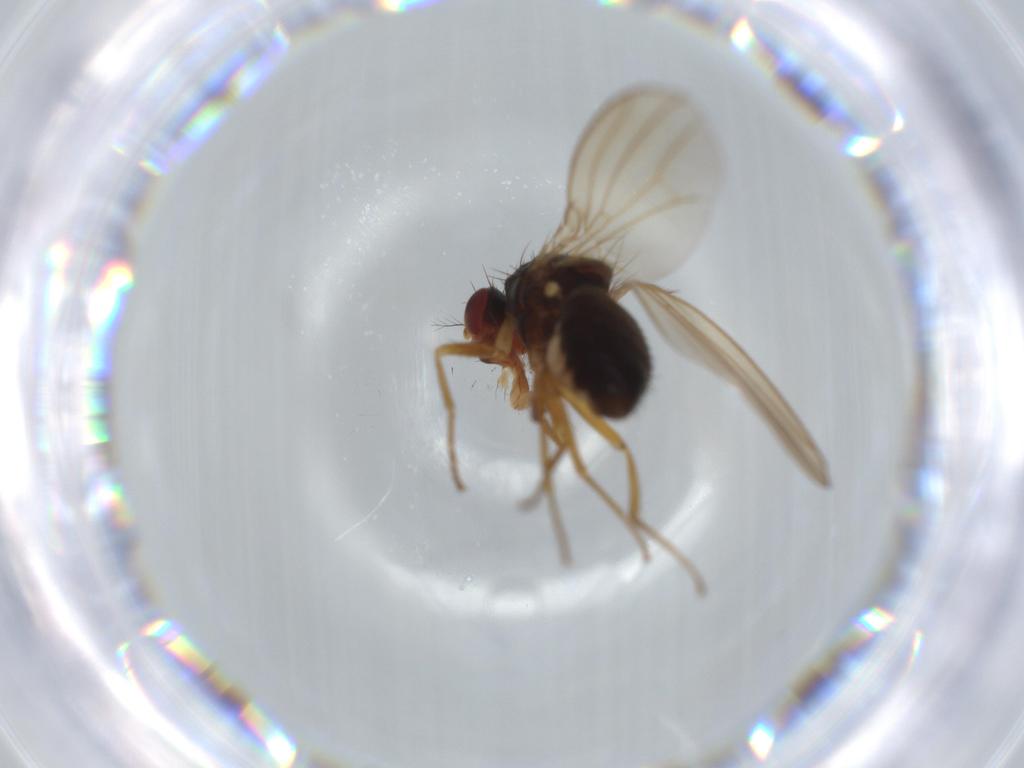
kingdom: Animalia
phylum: Arthropoda
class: Insecta
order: Diptera
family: Drosophilidae
